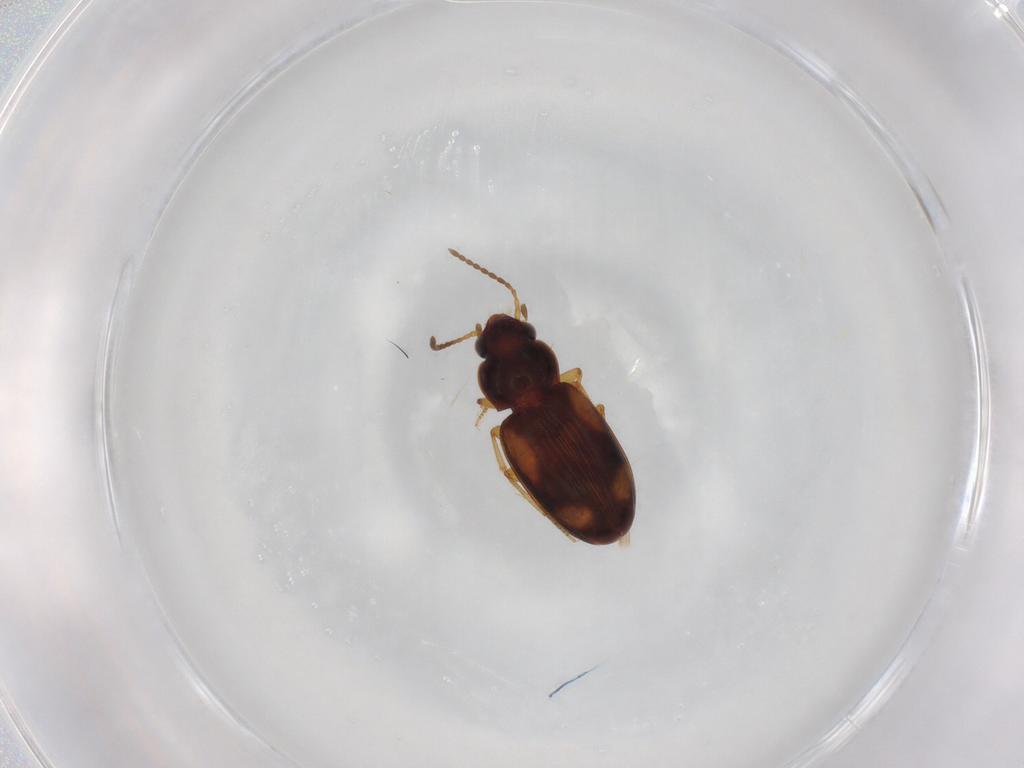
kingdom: Animalia
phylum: Arthropoda
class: Insecta
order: Coleoptera
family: Carabidae
